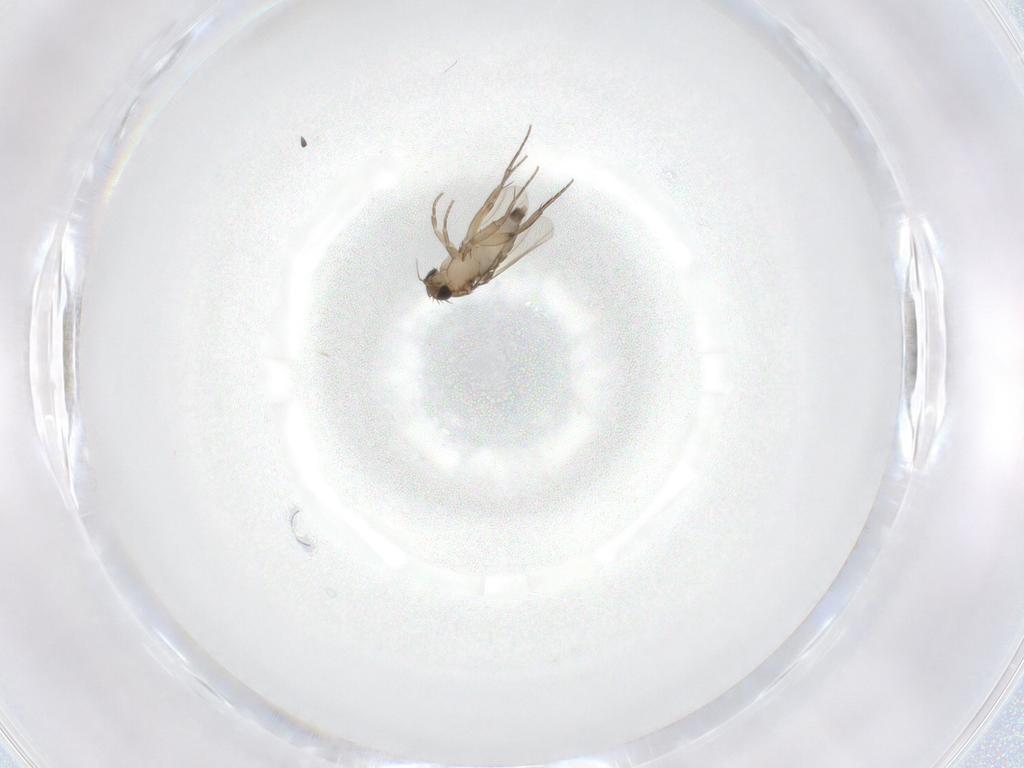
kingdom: Animalia
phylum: Arthropoda
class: Insecta
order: Diptera
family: Phoridae
